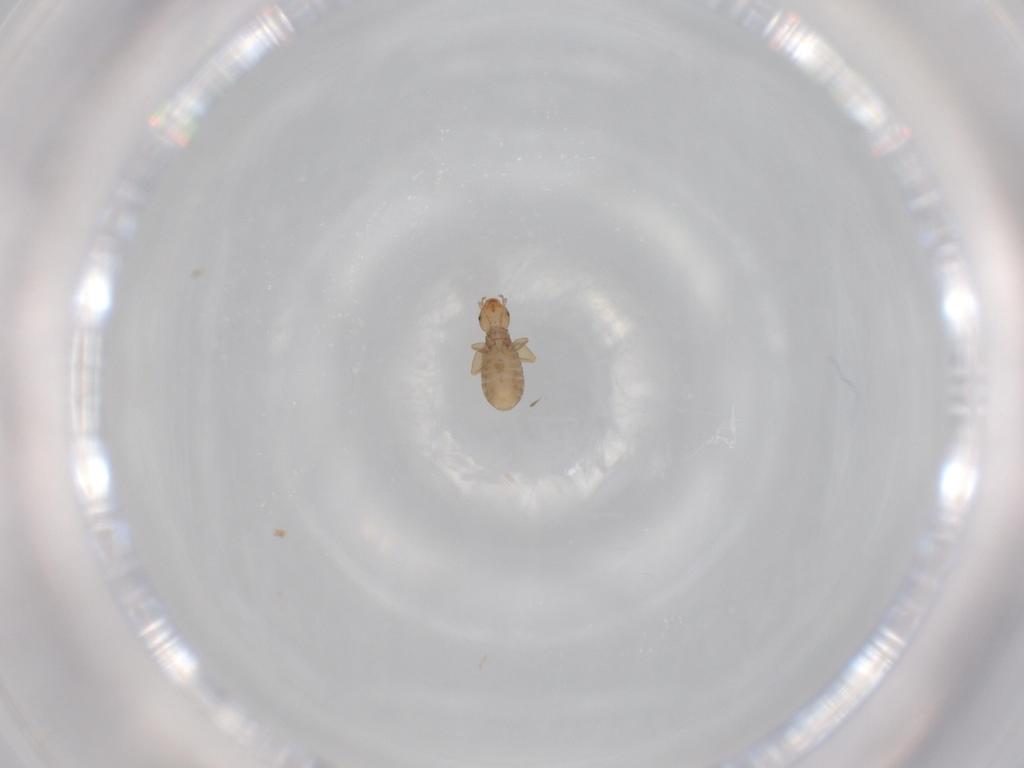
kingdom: Animalia
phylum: Arthropoda
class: Insecta
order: Psocodea
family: Liposcelididae
